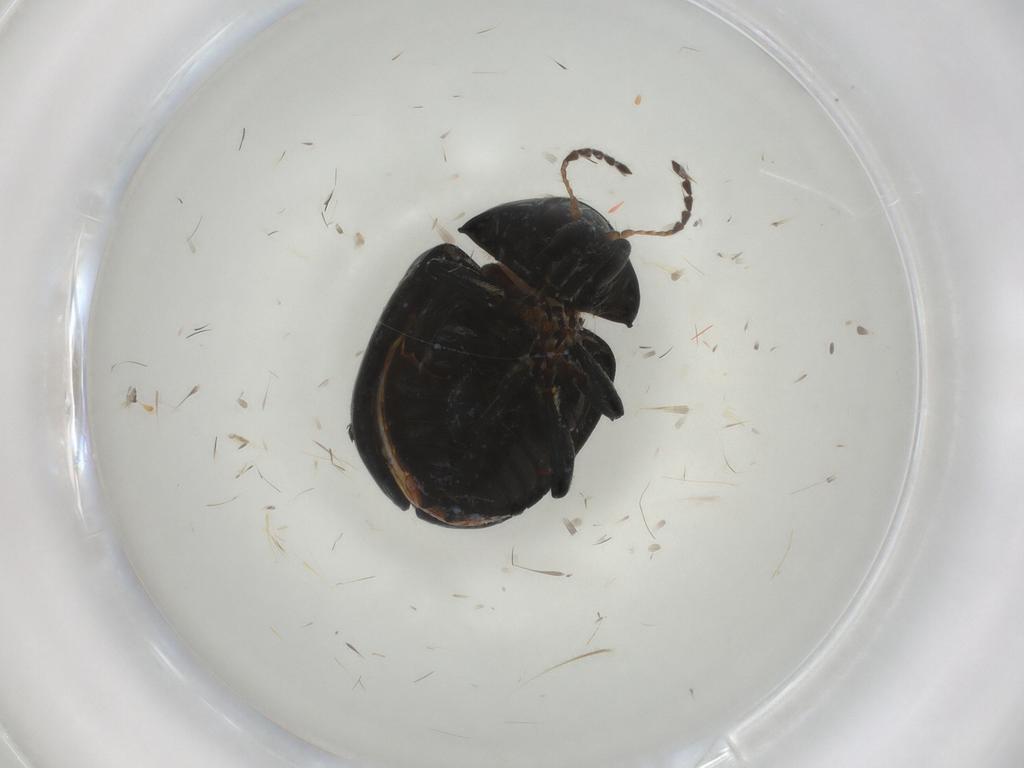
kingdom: Animalia
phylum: Arthropoda
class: Insecta
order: Coleoptera
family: Chrysomelidae
